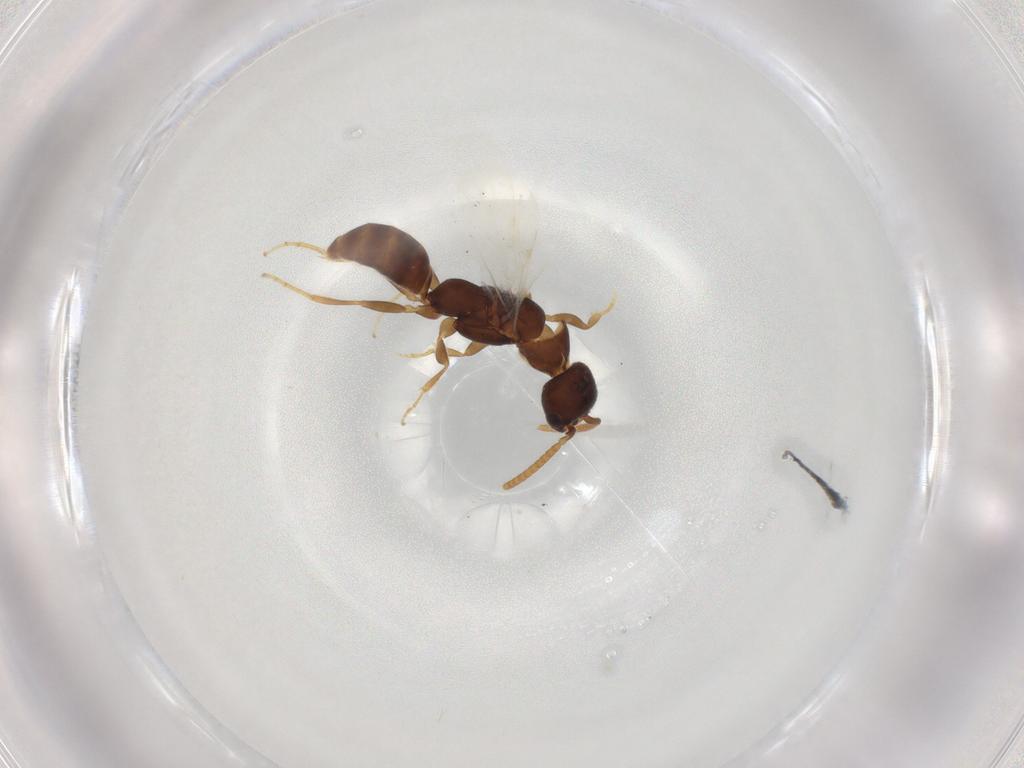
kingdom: Animalia
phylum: Arthropoda
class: Insecta
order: Hymenoptera
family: Bethylidae
